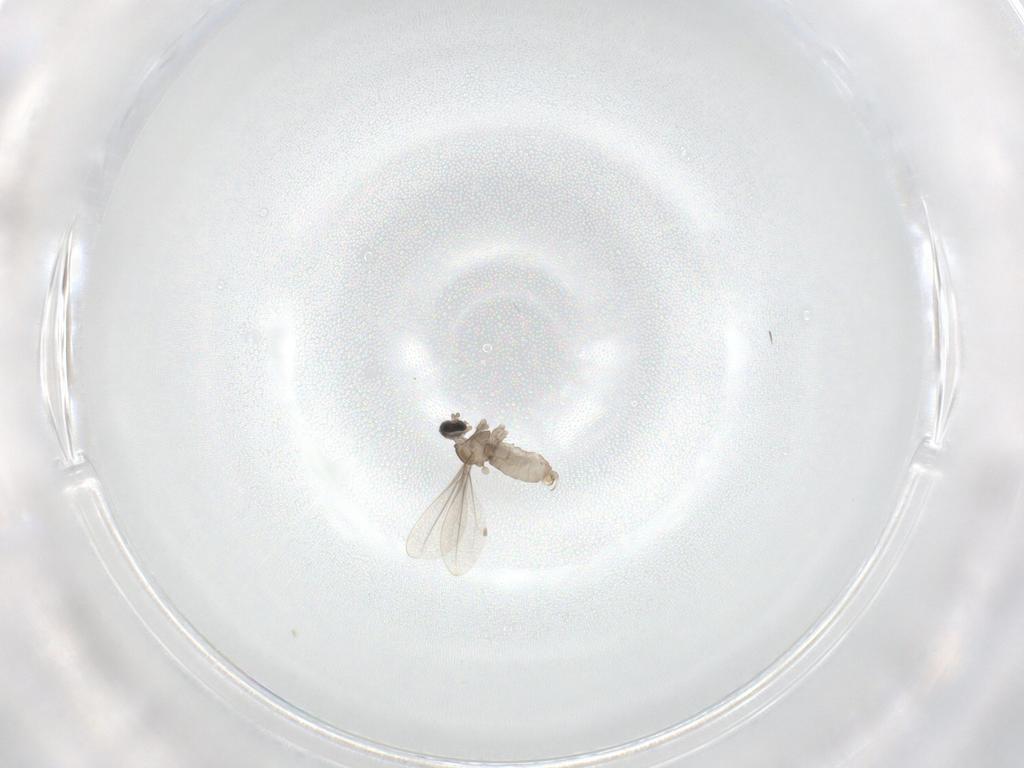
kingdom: Animalia
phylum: Arthropoda
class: Insecta
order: Diptera
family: Cecidomyiidae
